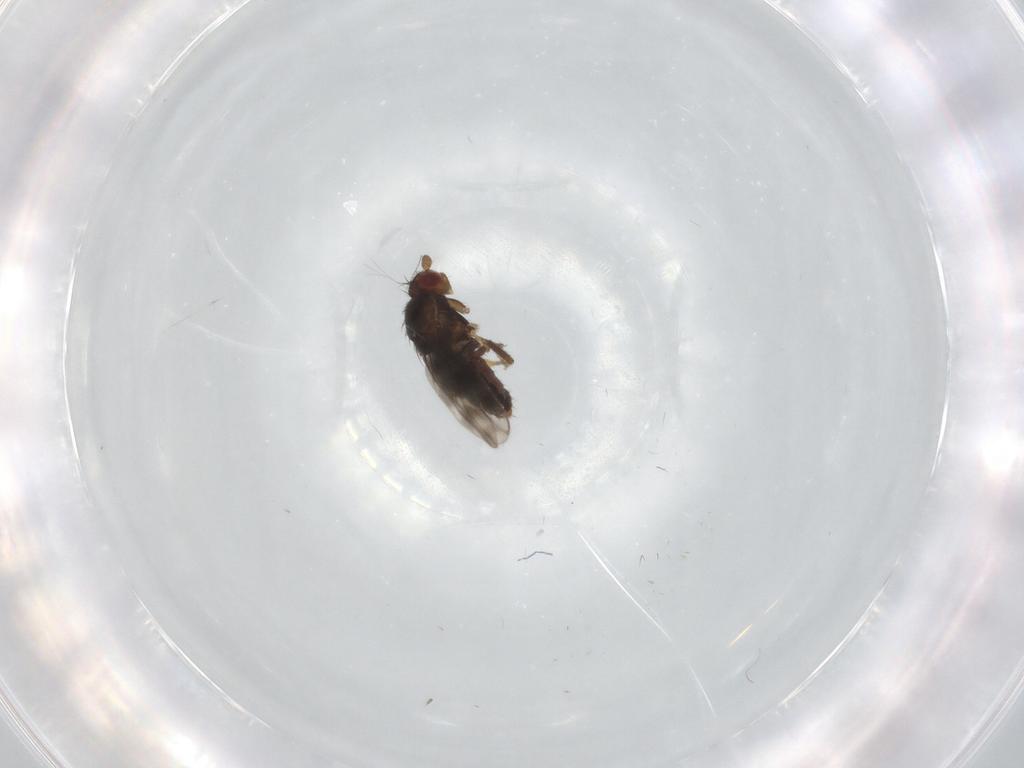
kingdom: Animalia
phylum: Arthropoda
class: Insecta
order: Diptera
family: Sphaeroceridae
